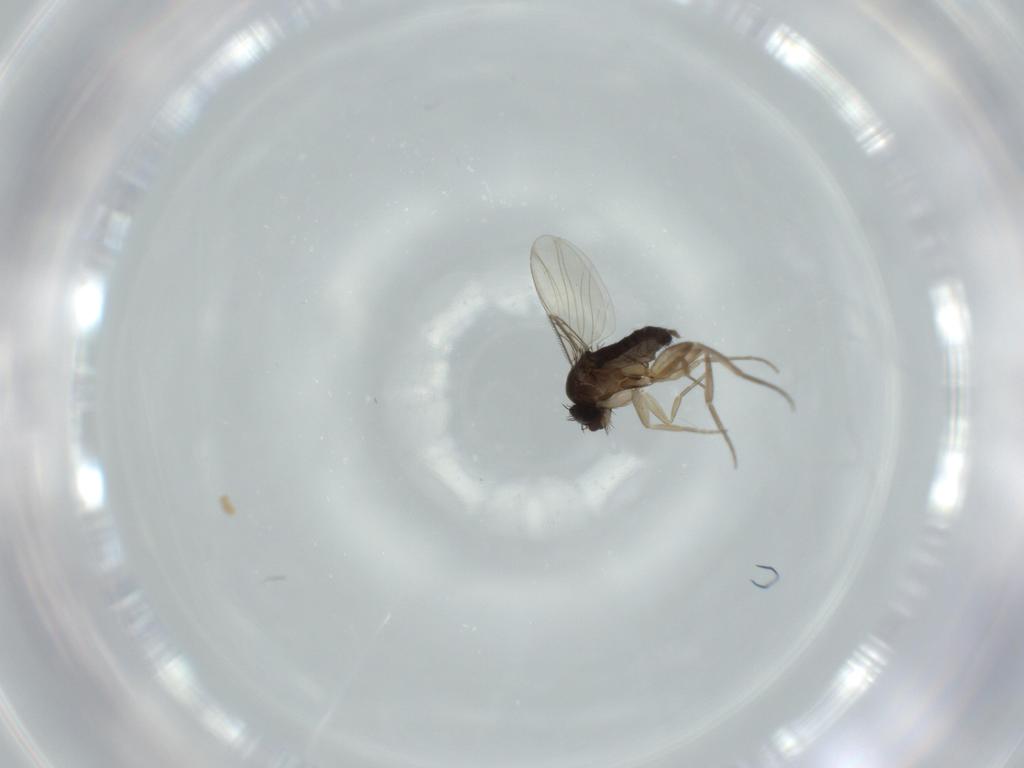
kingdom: Animalia
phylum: Arthropoda
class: Insecta
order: Diptera
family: Phoridae
